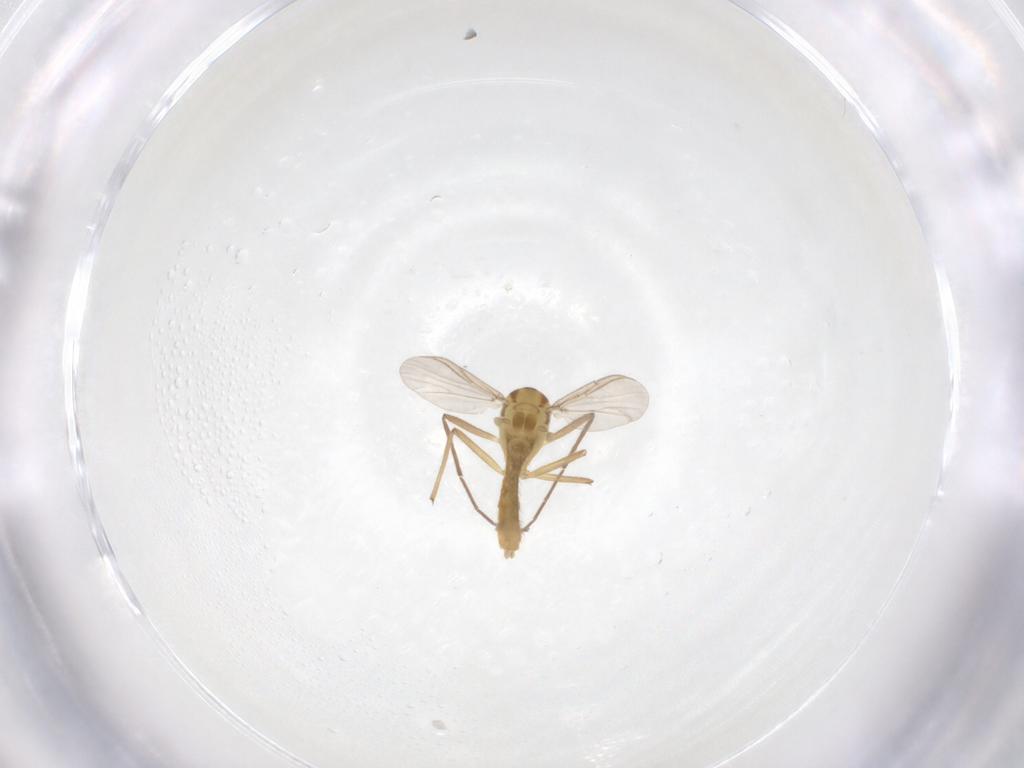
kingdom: Animalia
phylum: Arthropoda
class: Insecta
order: Diptera
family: Chironomidae
